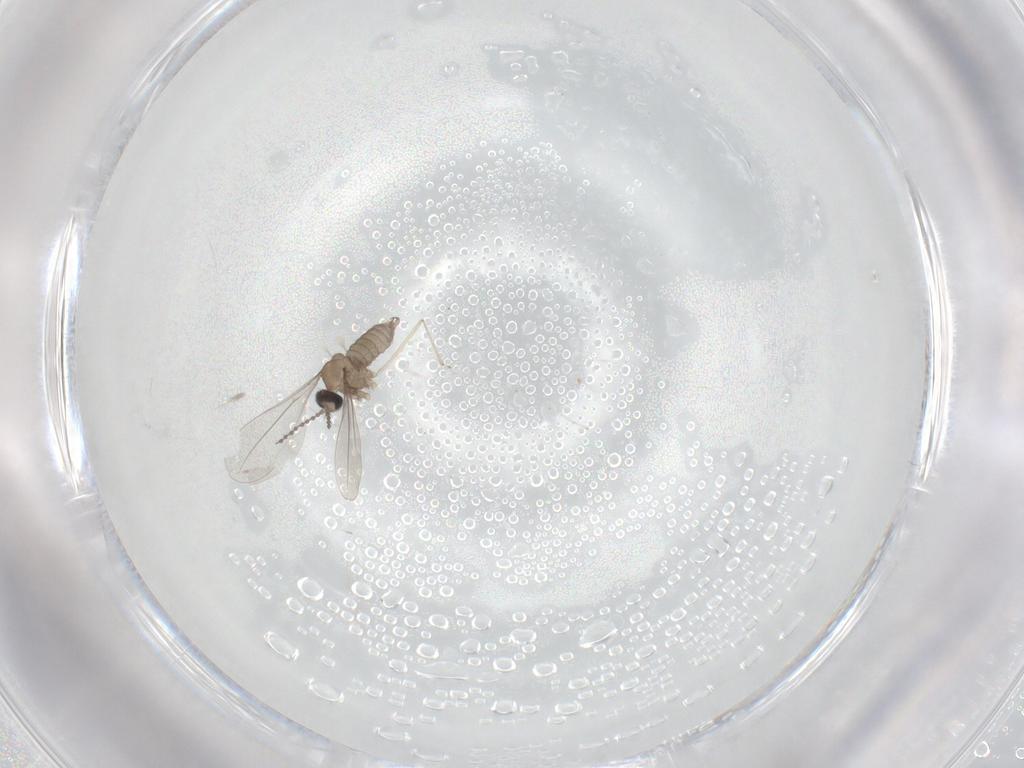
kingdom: Animalia
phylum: Arthropoda
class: Insecta
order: Diptera
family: Cecidomyiidae
